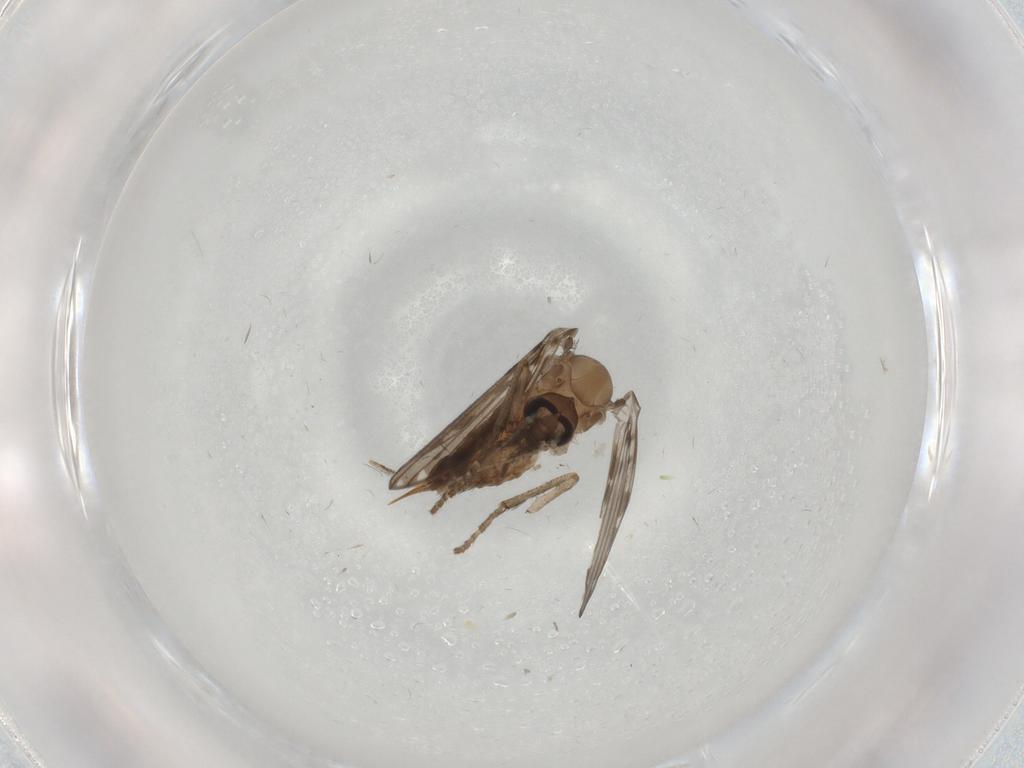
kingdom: Animalia
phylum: Arthropoda
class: Insecta
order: Diptera
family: Psychodidae
